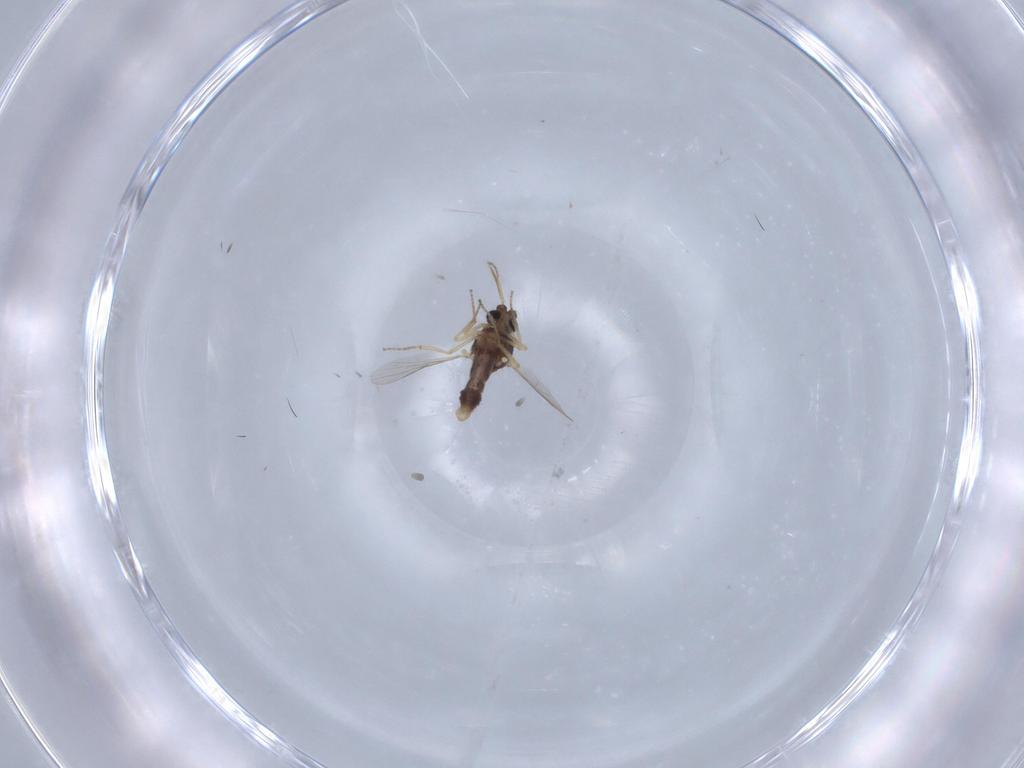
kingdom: Animalia
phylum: Arthropoda
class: Insecta
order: Diptera
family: Ceratopogonidae
